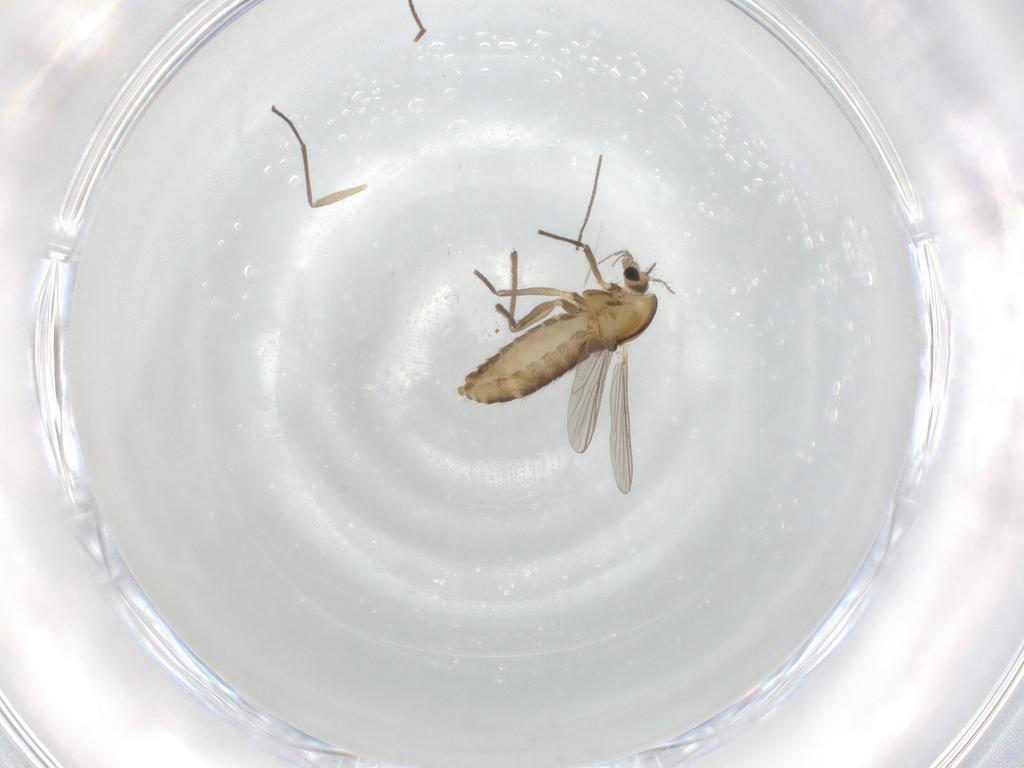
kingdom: Animalia
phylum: Arthropoda
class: Insecta
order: Diptera
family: Chironomidae
